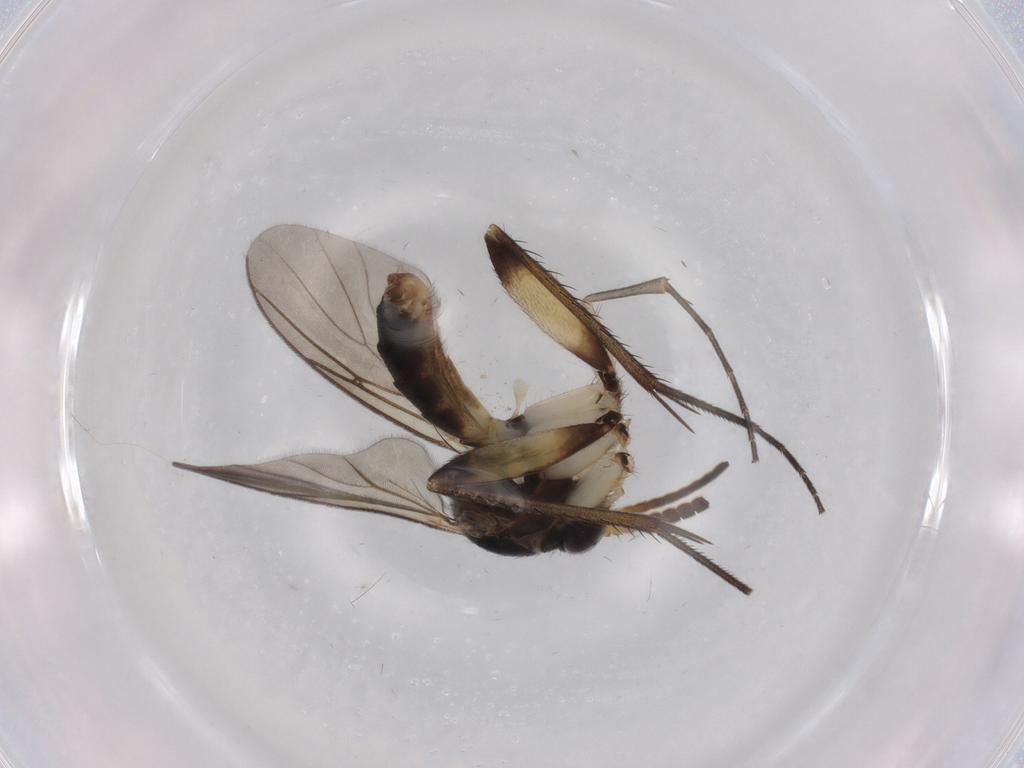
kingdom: Animalia
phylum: Arthropoda
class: Insecta
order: Diptera
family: Chironomidae
